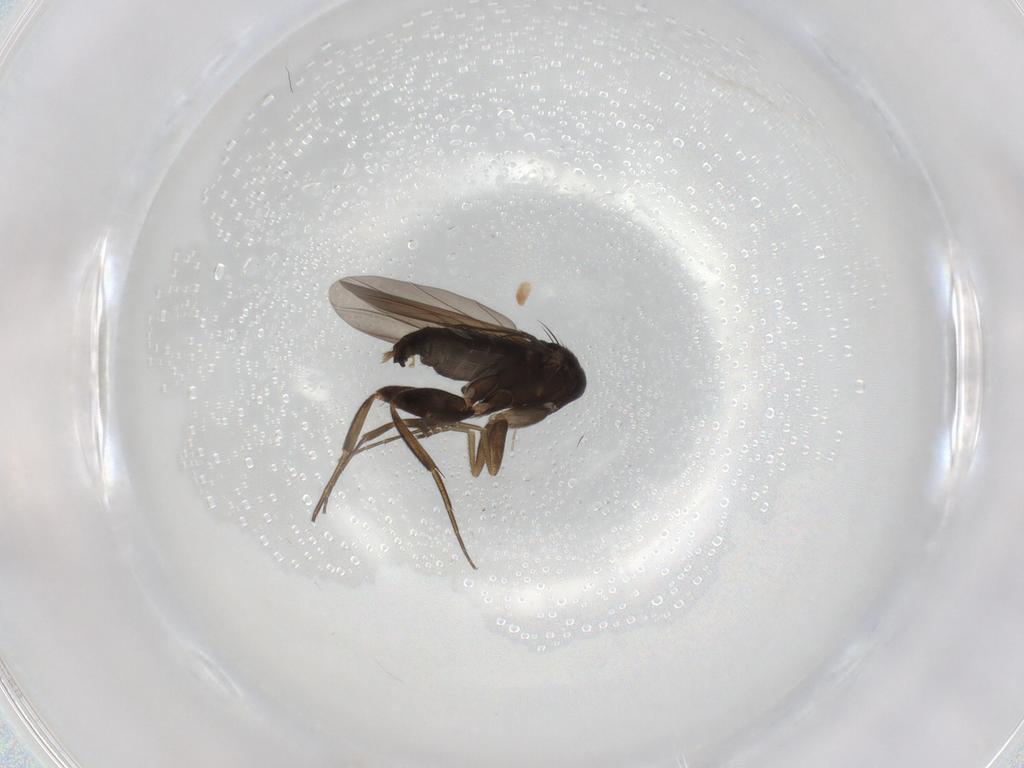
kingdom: Animalia
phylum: Arthropoda
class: Insecta
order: Diptera
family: Phoridae
